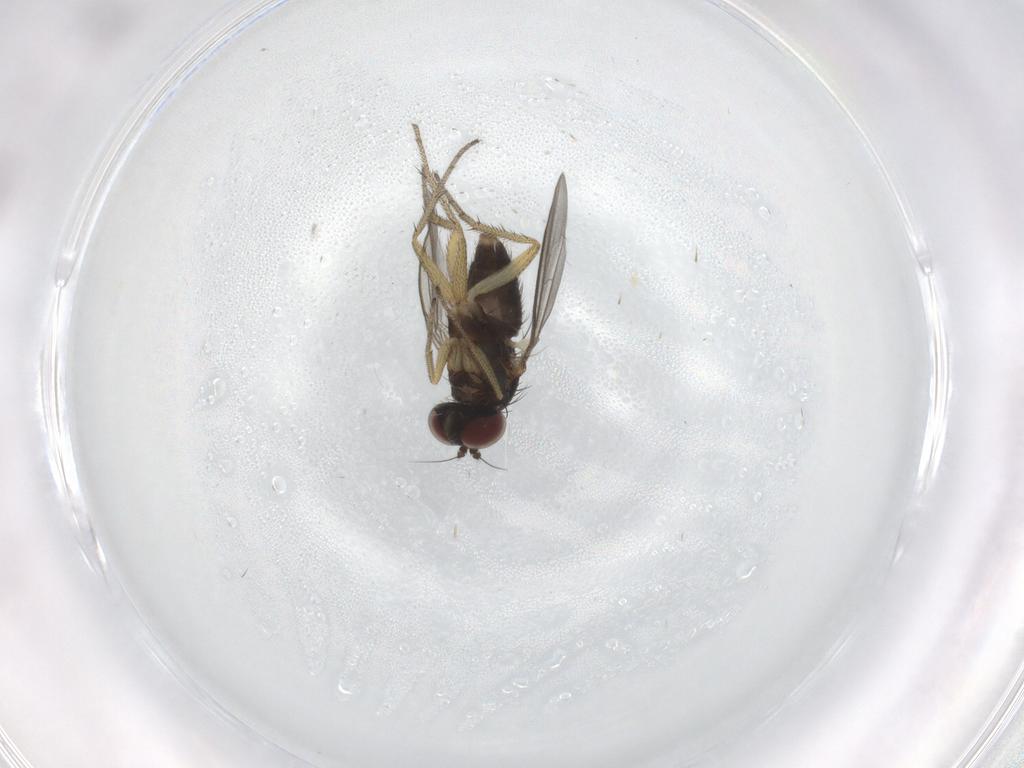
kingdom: Animalia
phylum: Arthropoda
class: Insecta
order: Diptera
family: Dolichopodidae
